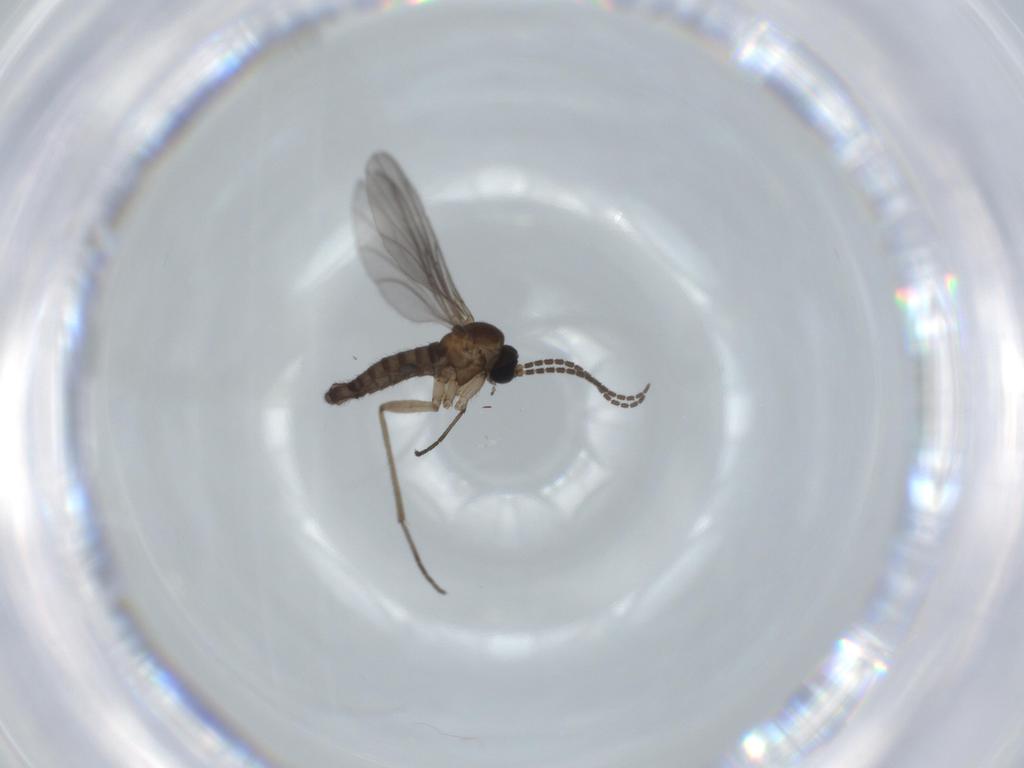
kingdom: Animalia
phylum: Arthropoda
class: Insecta
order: Diptera
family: Sciaridae
